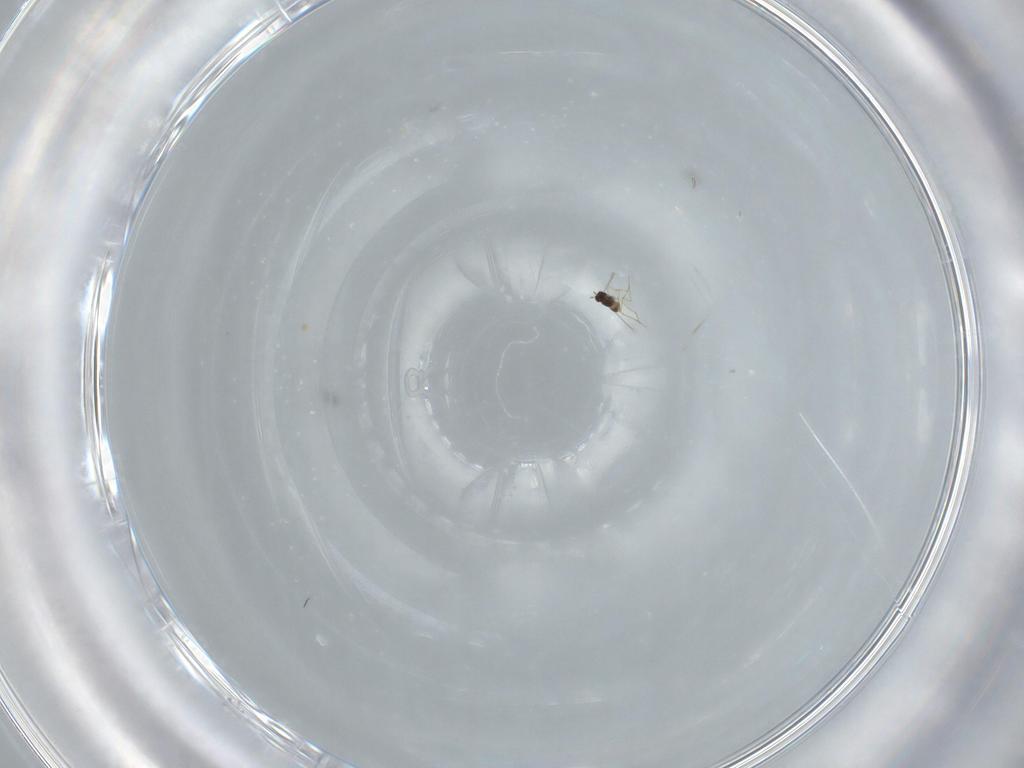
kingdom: Animalia
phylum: Arthropoda
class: Insecta
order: Hymenoptera
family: Mymaridae
